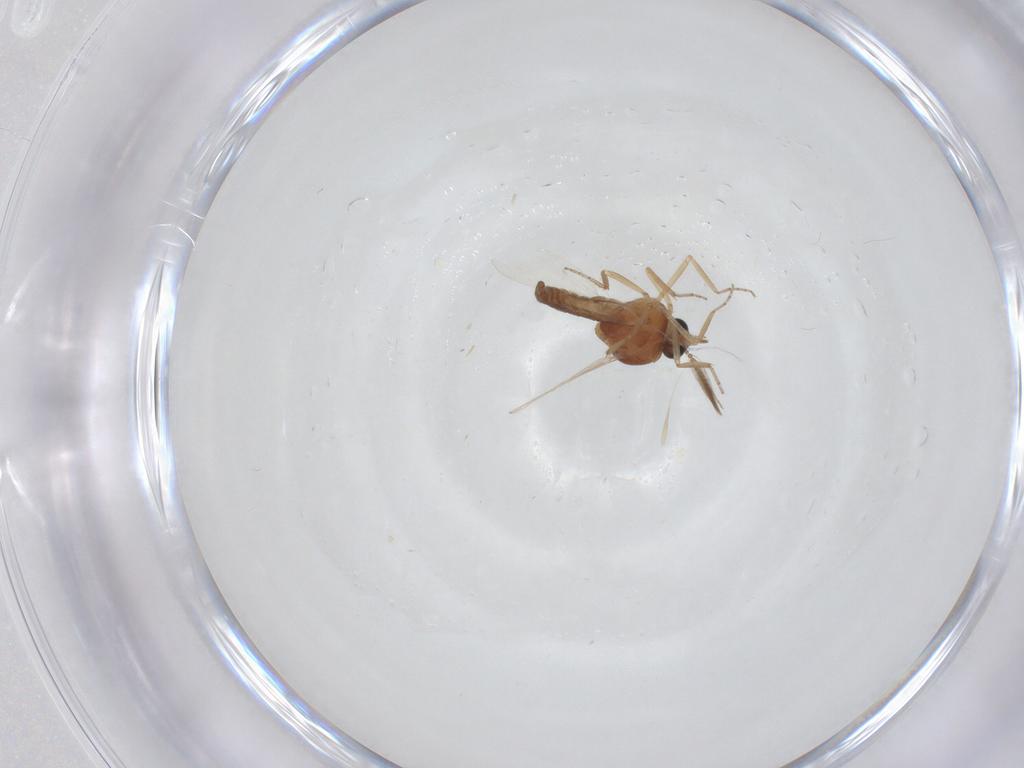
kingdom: Animalia
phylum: Arthropoda
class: Insecta
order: Diptera
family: Ceratopogonidae
